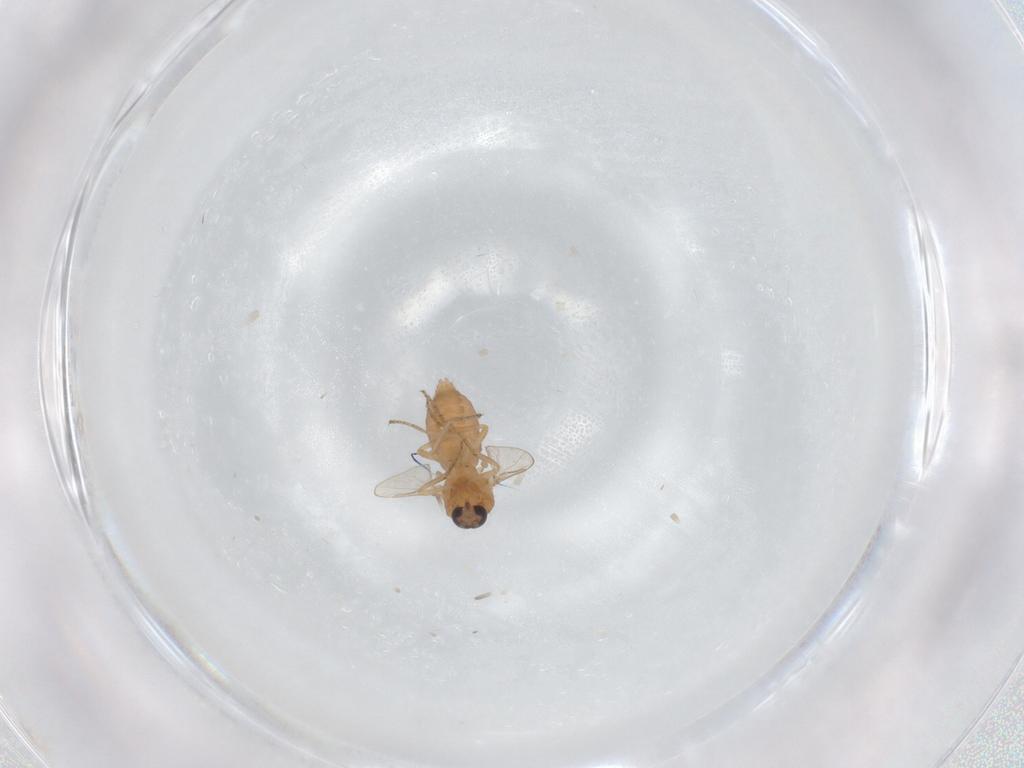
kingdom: Animalia
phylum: Arthropoda
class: Insecta
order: Diptera
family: Ceratopogonidae
